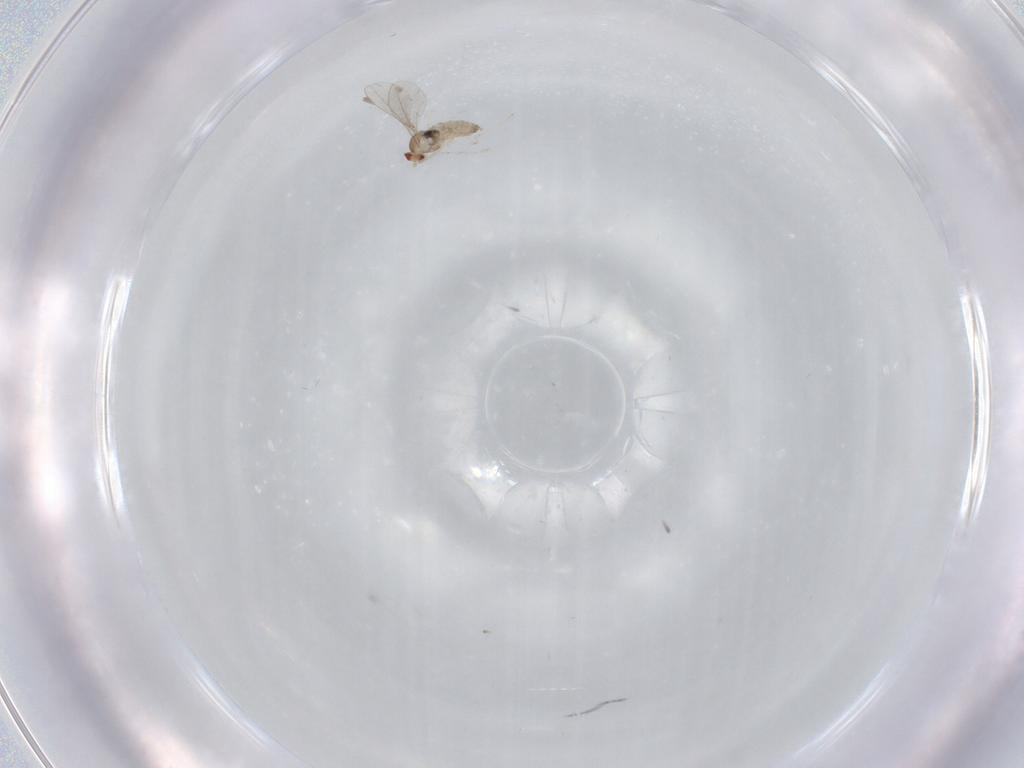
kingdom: Animalia
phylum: Arthropoda
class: Insecta
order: Diptera
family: Cecidomyiidae
